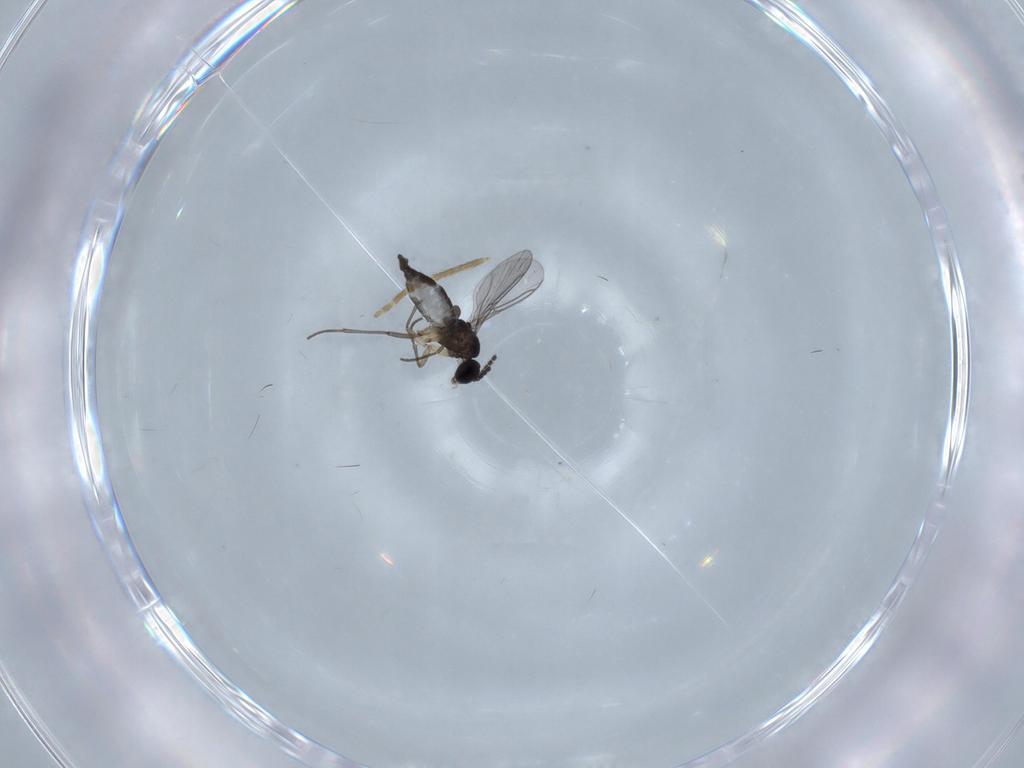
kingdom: Animalia
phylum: Arthropoda
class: Insecta
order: Diptera
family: Sciaridae
